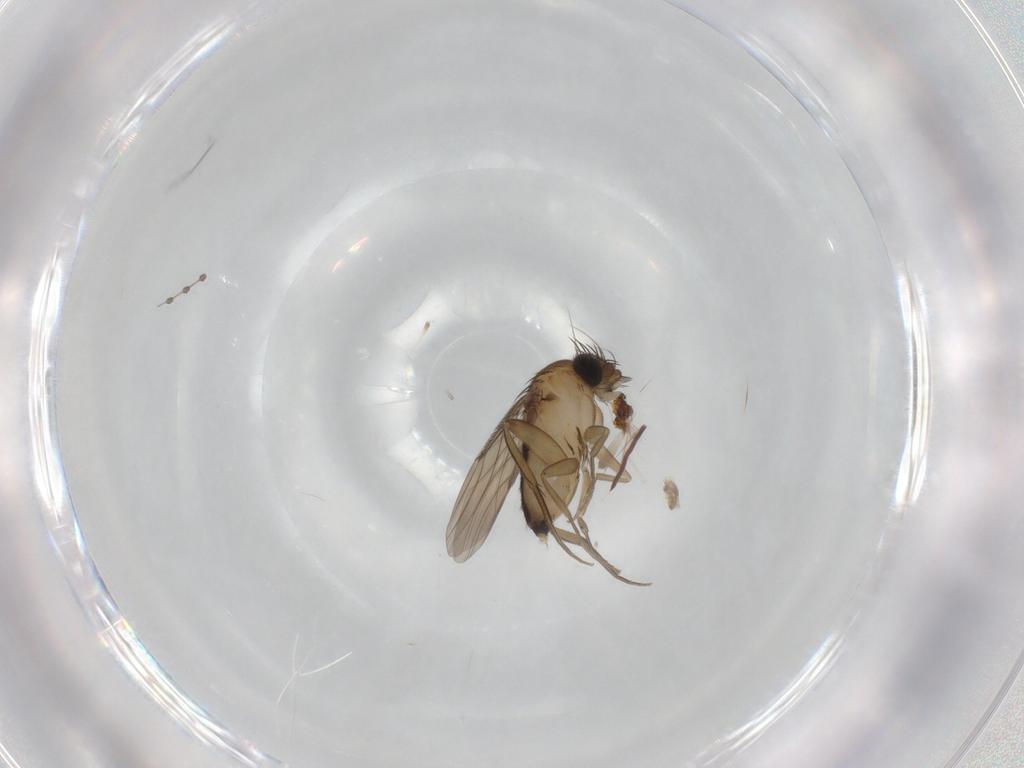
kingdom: Animalia
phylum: Arthropoda
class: Insecta
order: Diptera
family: Phoridae
